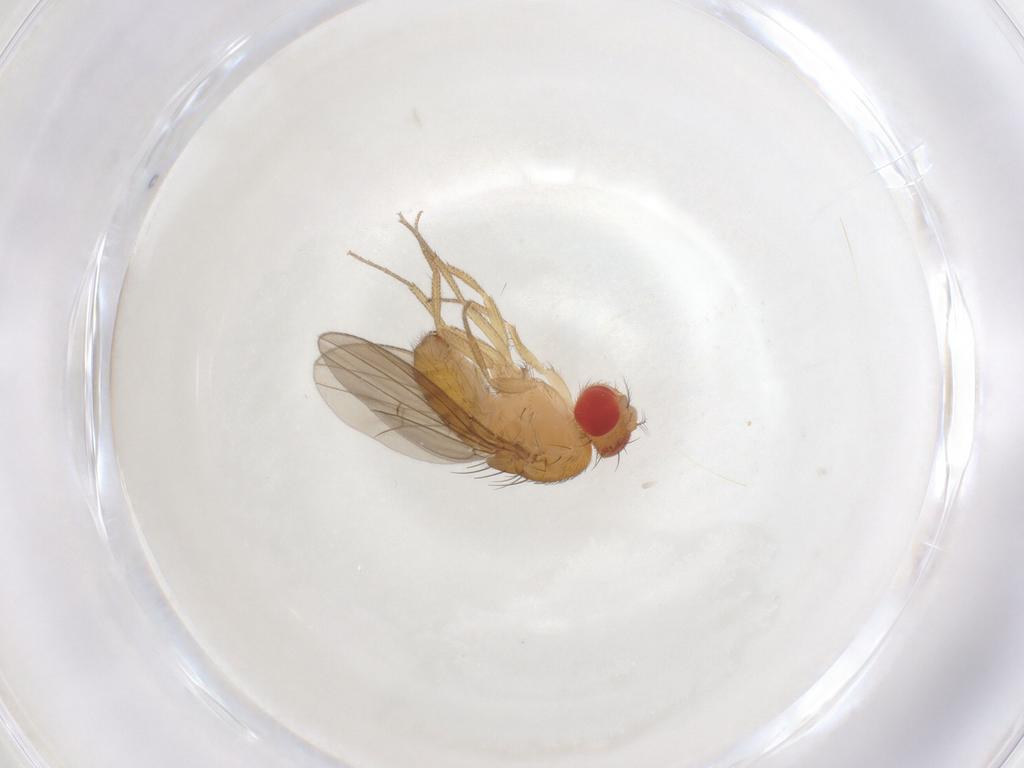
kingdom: Animalia
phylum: Arthropoda
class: Insecta
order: Diptera
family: Drosophilidae
